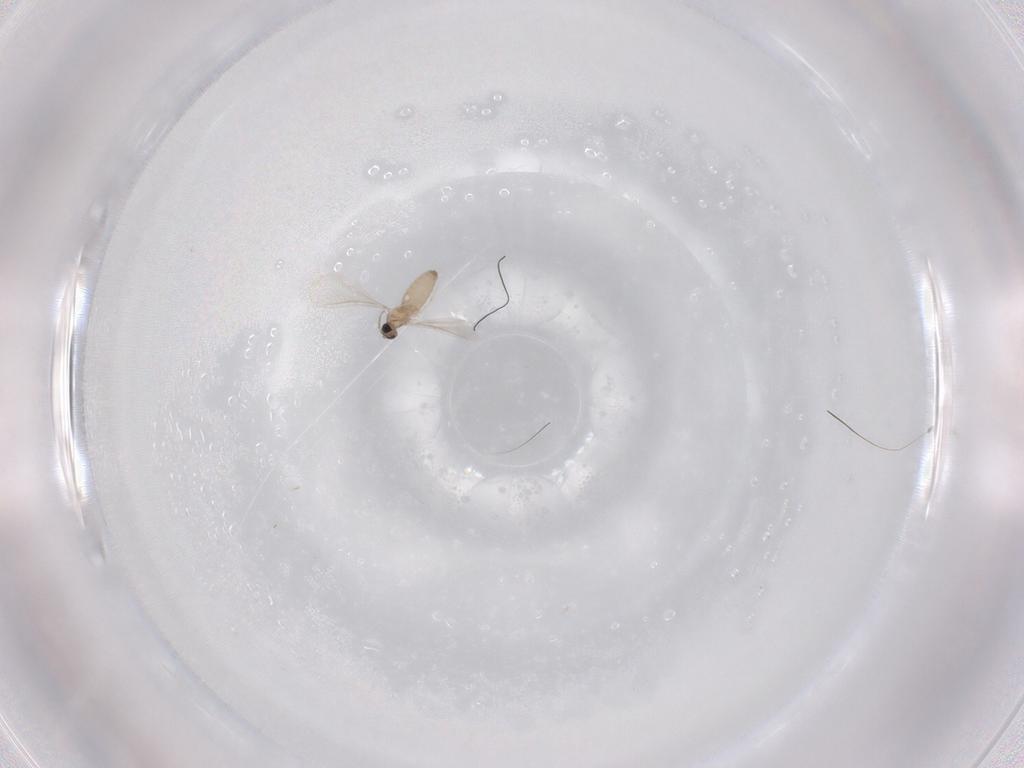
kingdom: Animalia
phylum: Arthropoda
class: Insecta
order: Diptera
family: Cecidomyiidae
